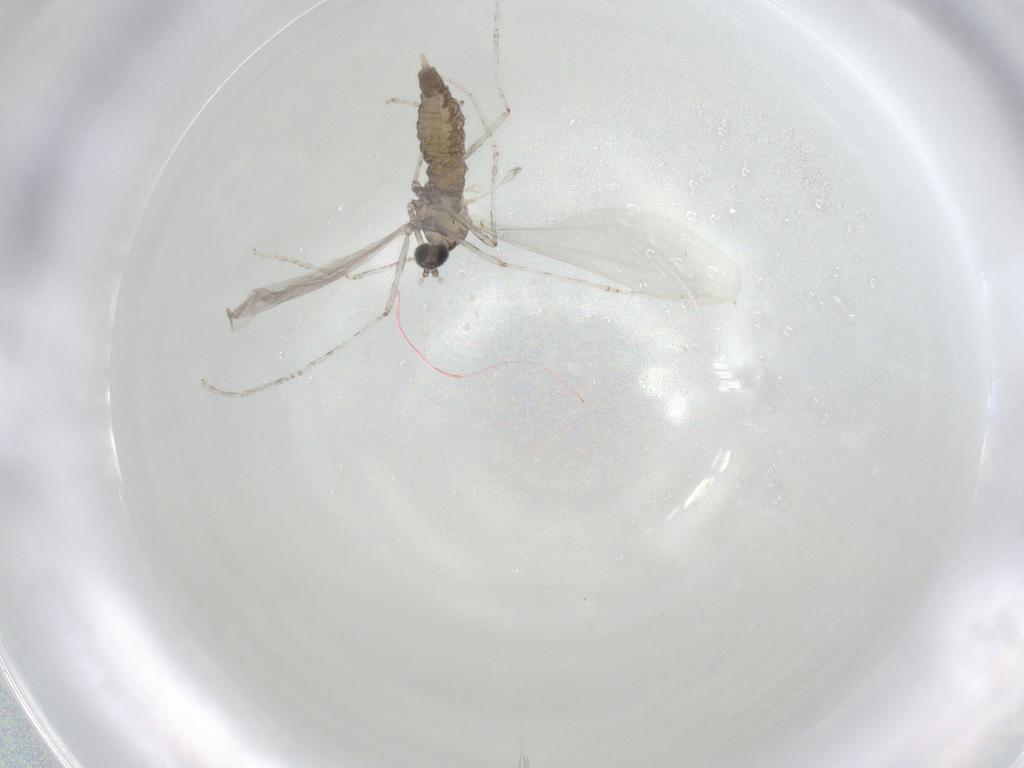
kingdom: Animalia
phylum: Arthropoda
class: Insecta
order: Diptera
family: Cecidomyiidae
